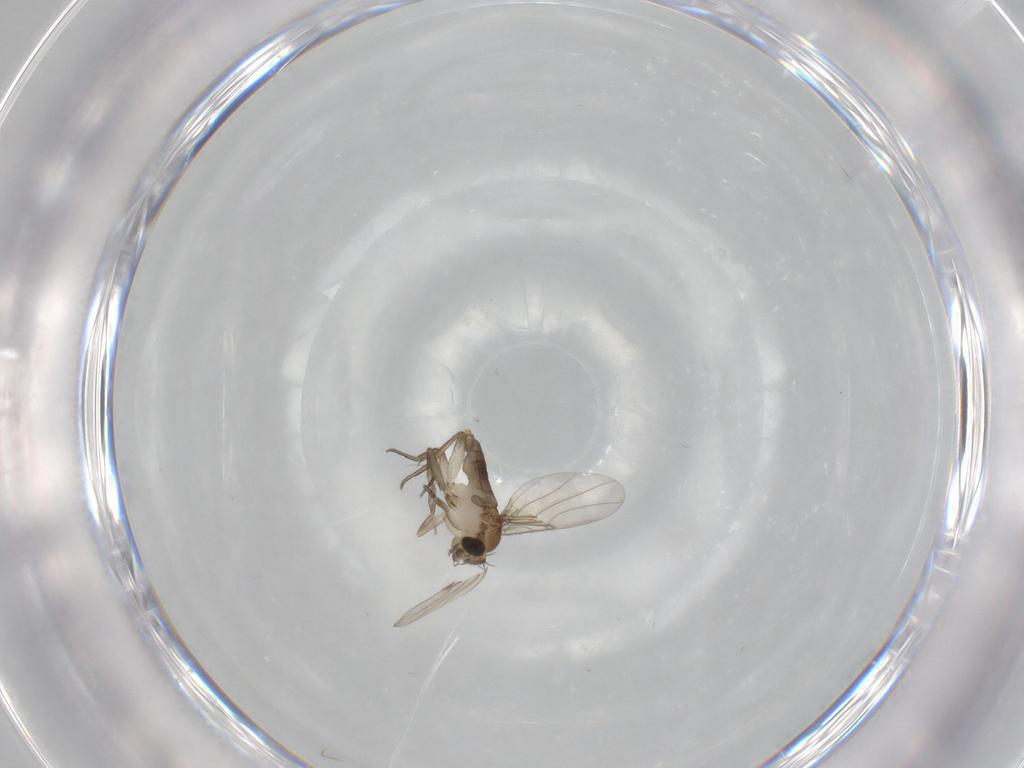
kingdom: Animalia
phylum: Arthropoda
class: Insecta
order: Diptera
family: Phoridae
